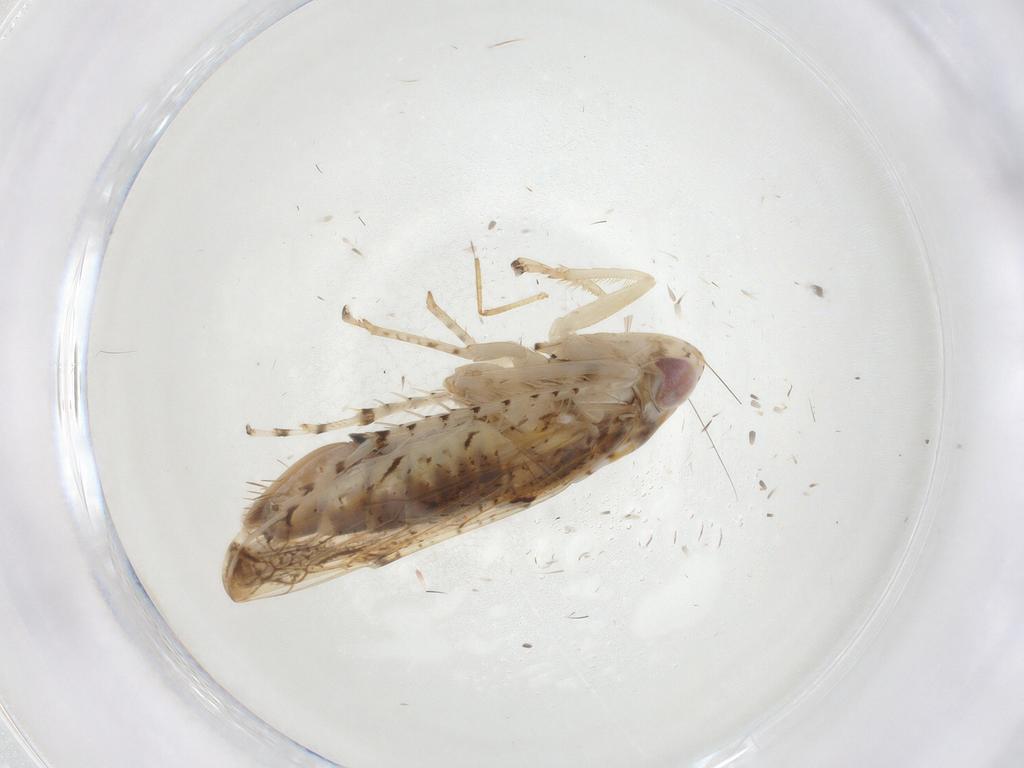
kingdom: Animalia
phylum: Arthropoda
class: Insecta
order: Hemiptera
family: Cicadellidae
